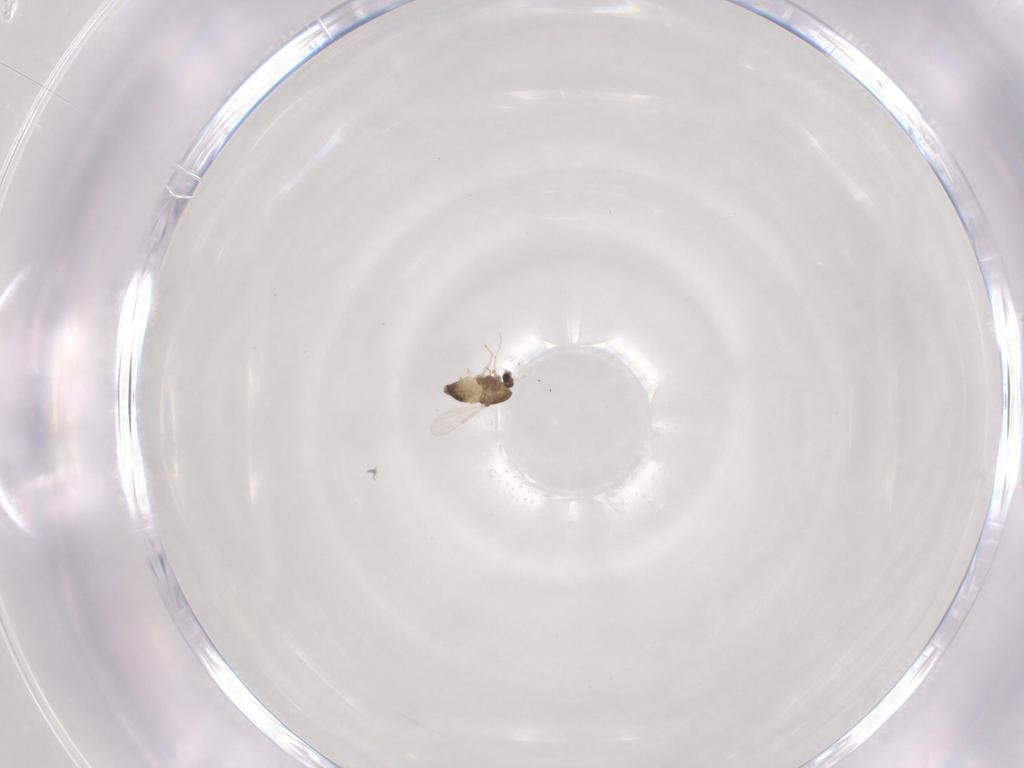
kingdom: Animalia
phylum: Arthropoda
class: Insecta
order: Diptera
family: Chironomidae
